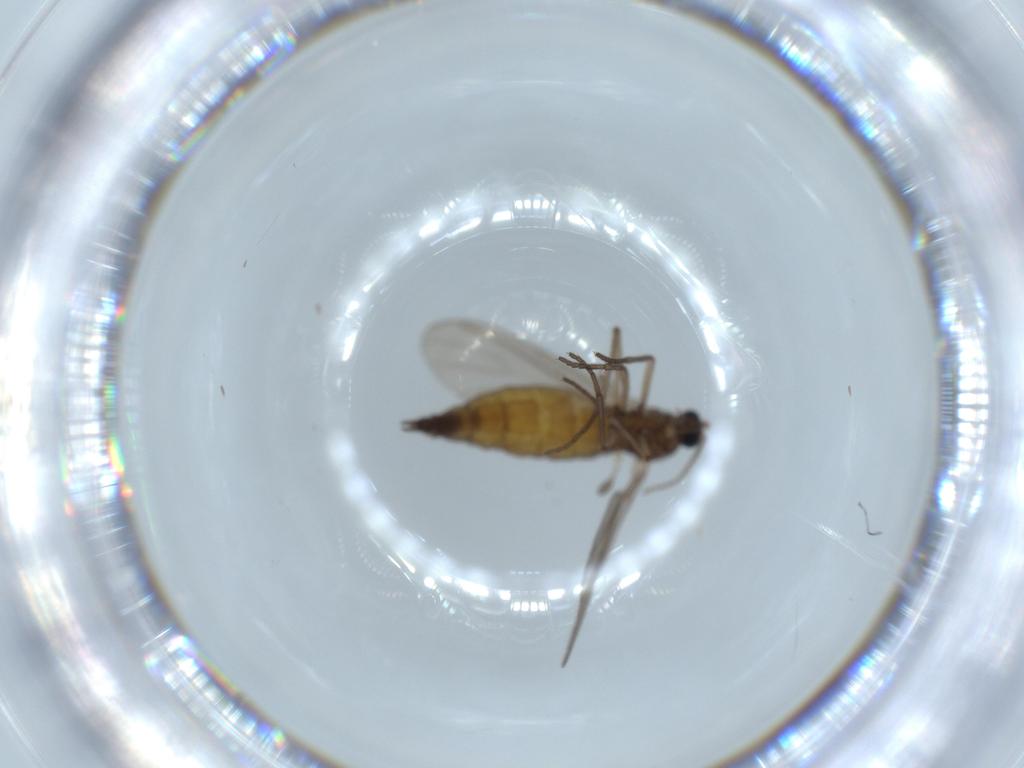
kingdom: Animalia
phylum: Arthropoda
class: Insecta
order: Diptera
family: Sciaridae
